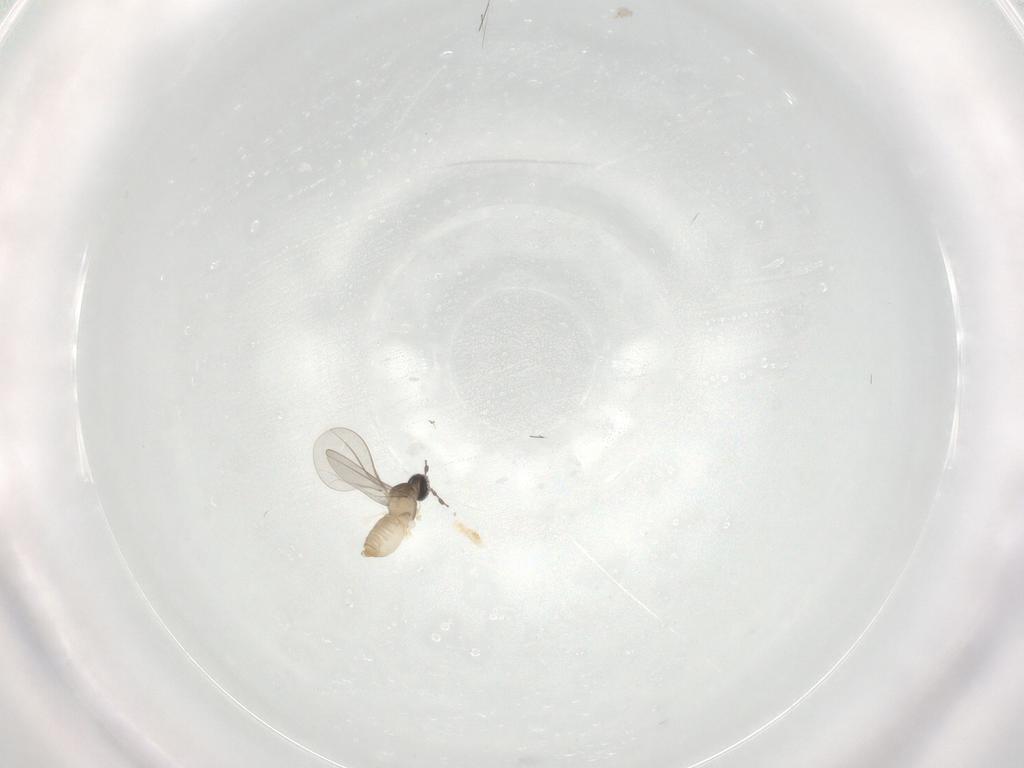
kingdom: Animalia
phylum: Arthropoda
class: Insecta
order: Diptera
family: Cecidomyiidae
